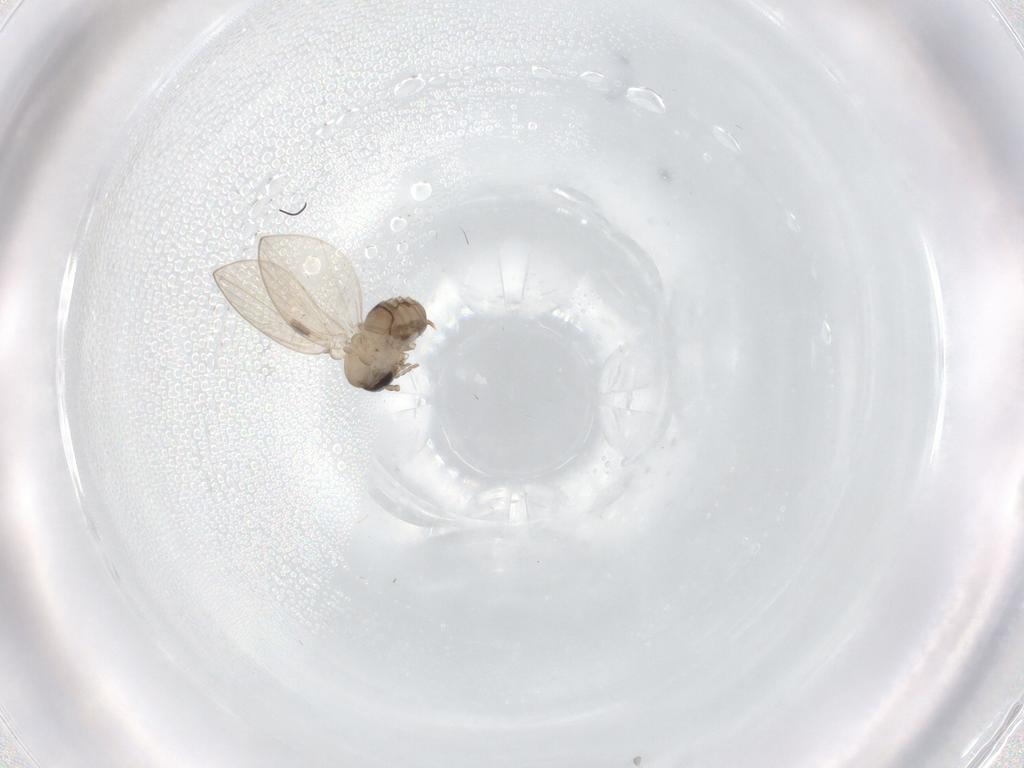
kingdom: Animalia
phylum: Arthropoda
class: Insecta
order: Diptera
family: Psychodidae
